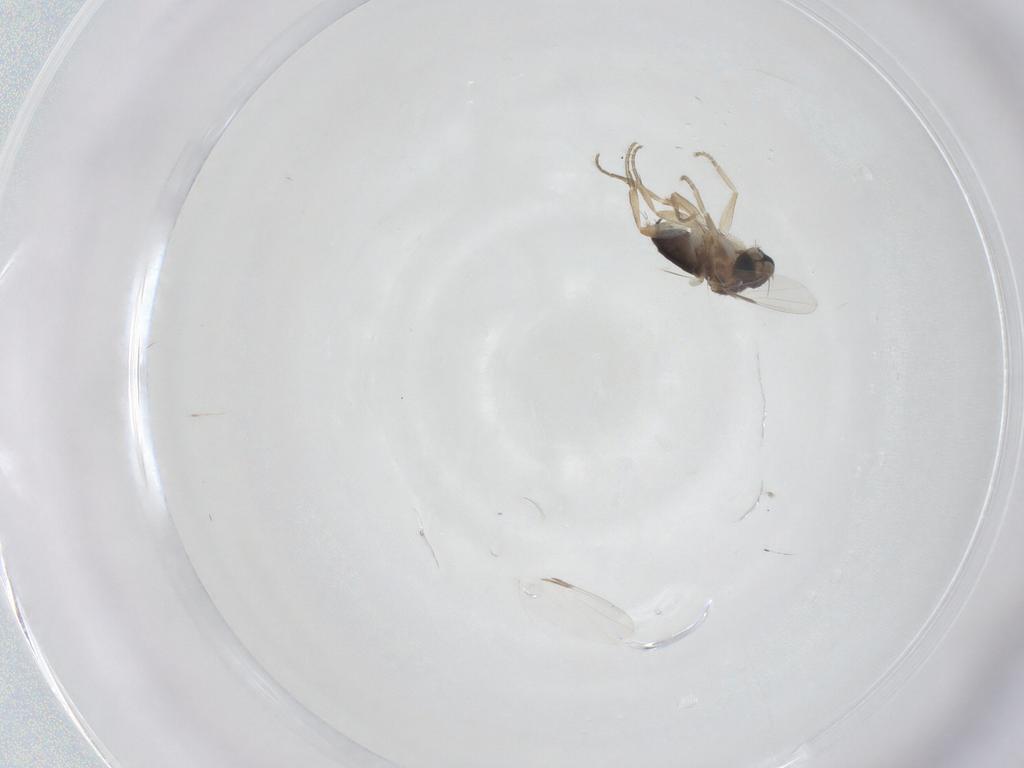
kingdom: Animalia
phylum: Arthropoda
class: Insecta
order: Diptera
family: Phoridae
